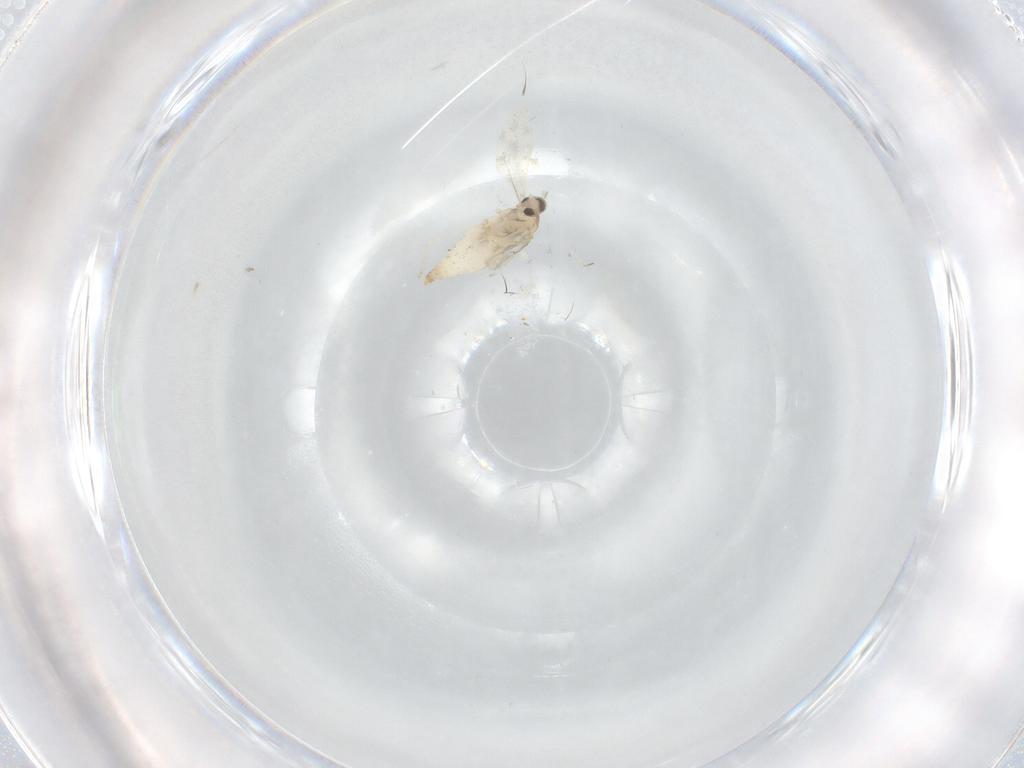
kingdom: Animalia
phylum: Arthropoda
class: Insecta
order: Diptera
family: Cecidomyiidae
